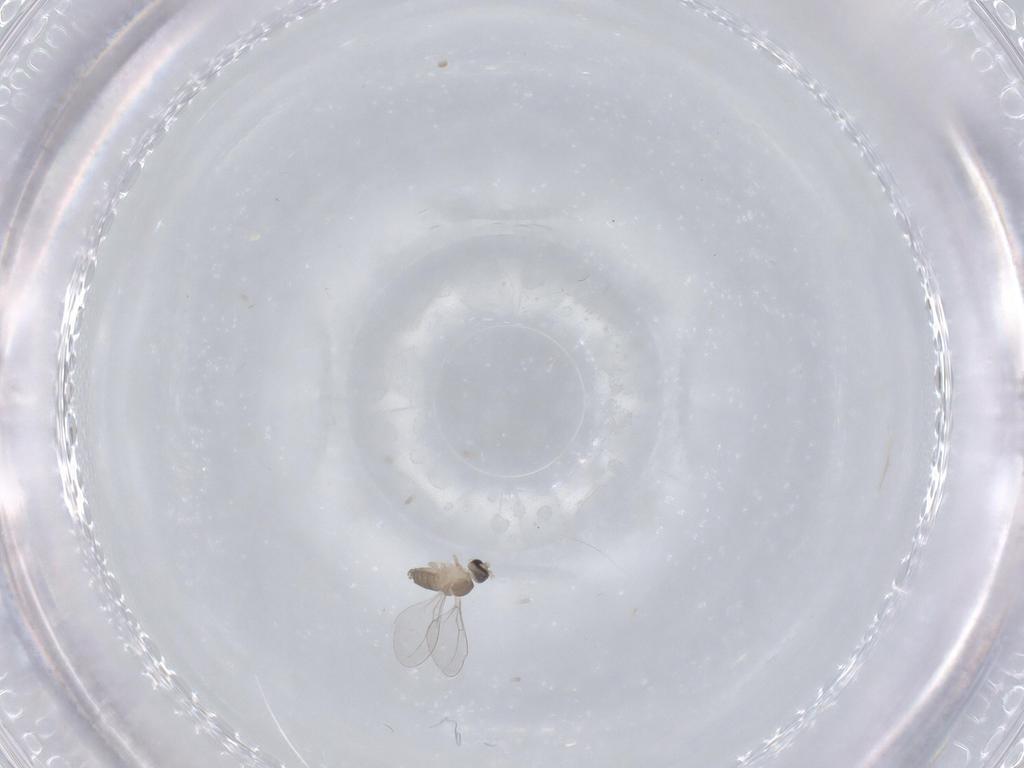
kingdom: Animalia
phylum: Arthropoda
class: Insecta
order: Diptera
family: Cecidomyiidae
